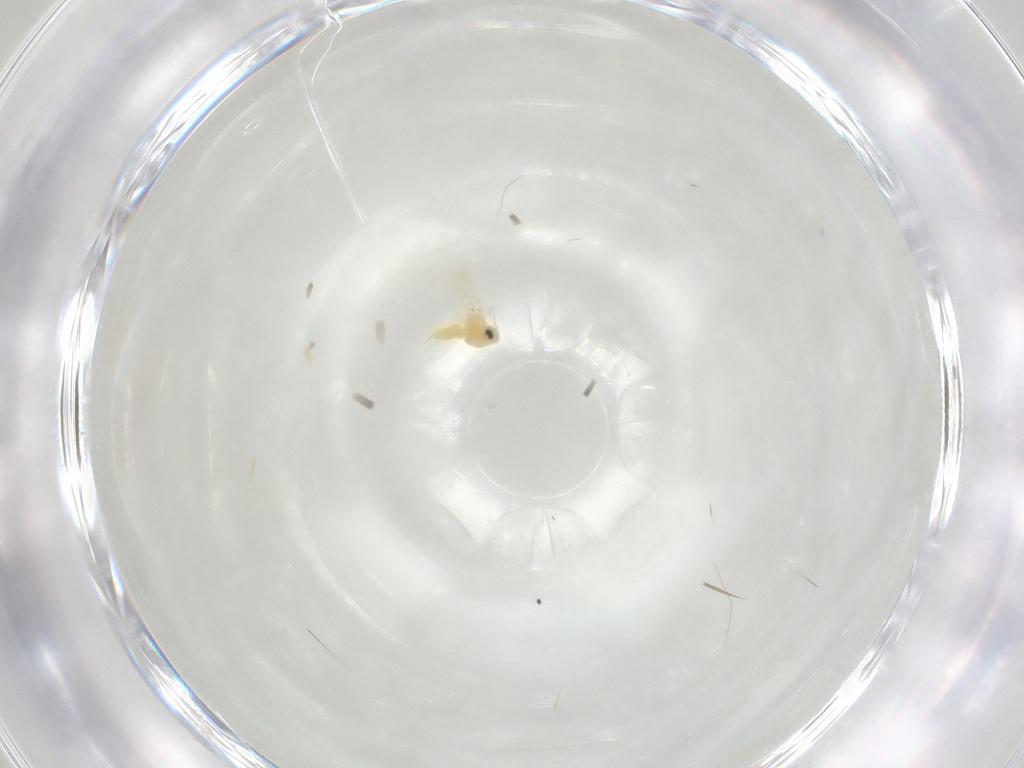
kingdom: Animalia
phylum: Arthropoda
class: Insecta
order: Hemiptera
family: Aleyrodidae
